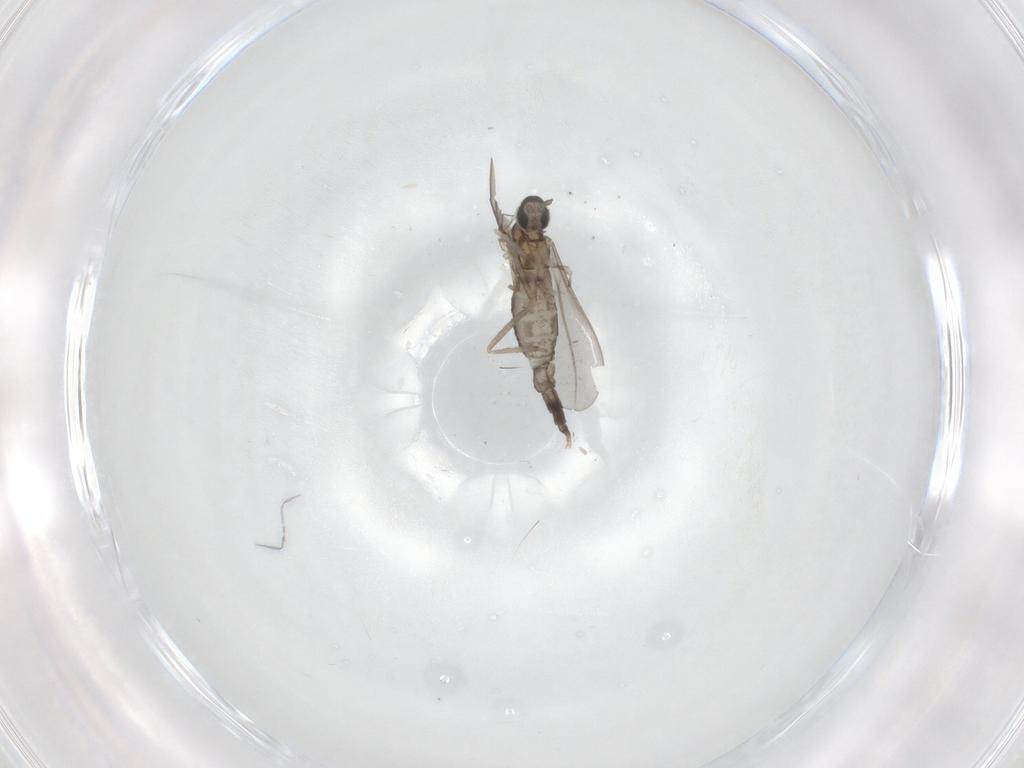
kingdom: Animalia
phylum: Arthropoda
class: Insecta
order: Diptera
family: Cecidomyiidae
